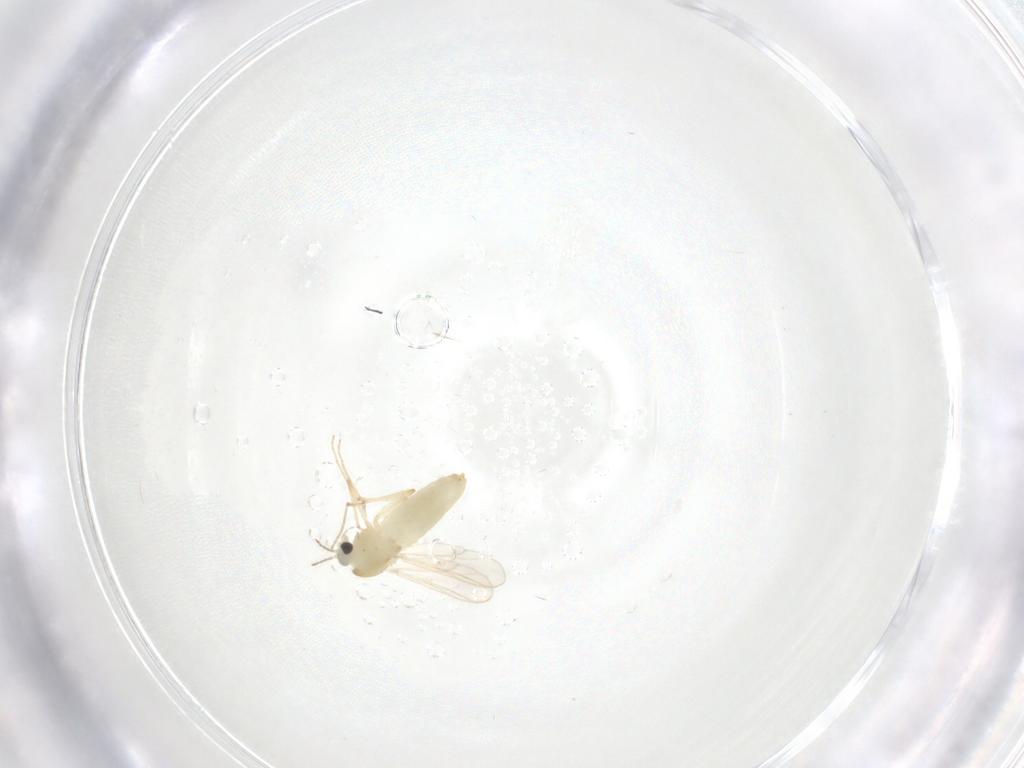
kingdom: Animalia
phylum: Arthropoda
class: Insecta
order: Diptera
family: Chironomidae
